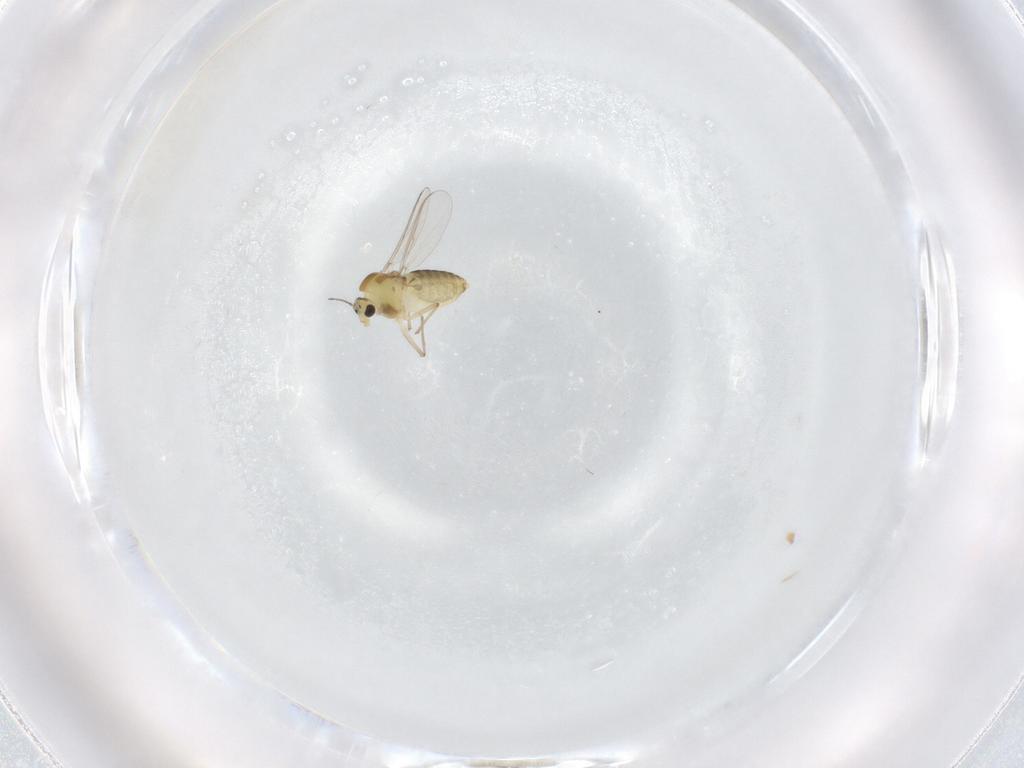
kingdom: Animalia
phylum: Arthropoda
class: Insecta
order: Diptera
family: Chironomidae
